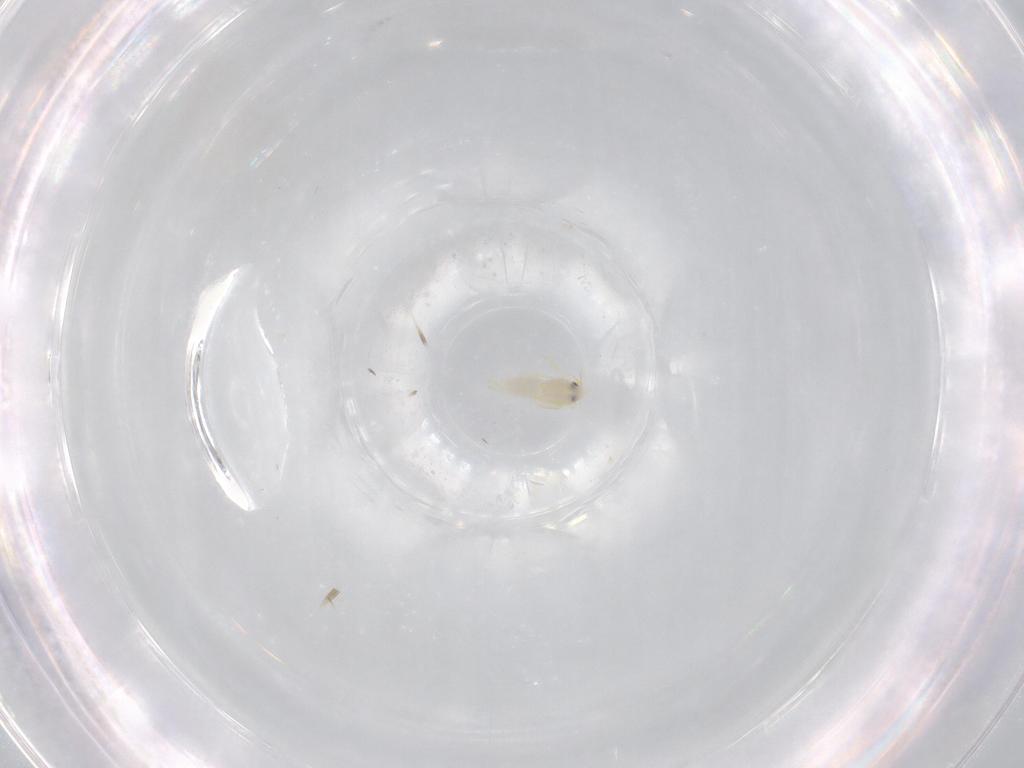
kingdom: Animalia
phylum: Arthropoda
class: Insecta
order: Hemiptera
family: Aleyrodidae
